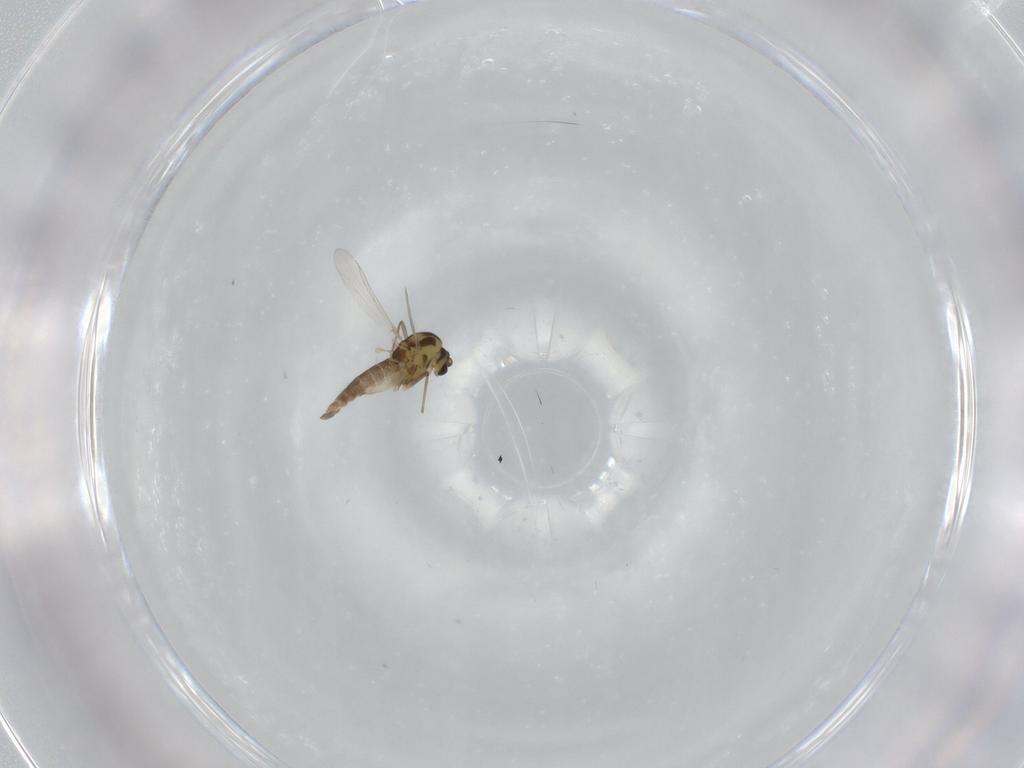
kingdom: Animalia
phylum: Arthropoda
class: Insecta
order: Diptera
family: Chironomidae
